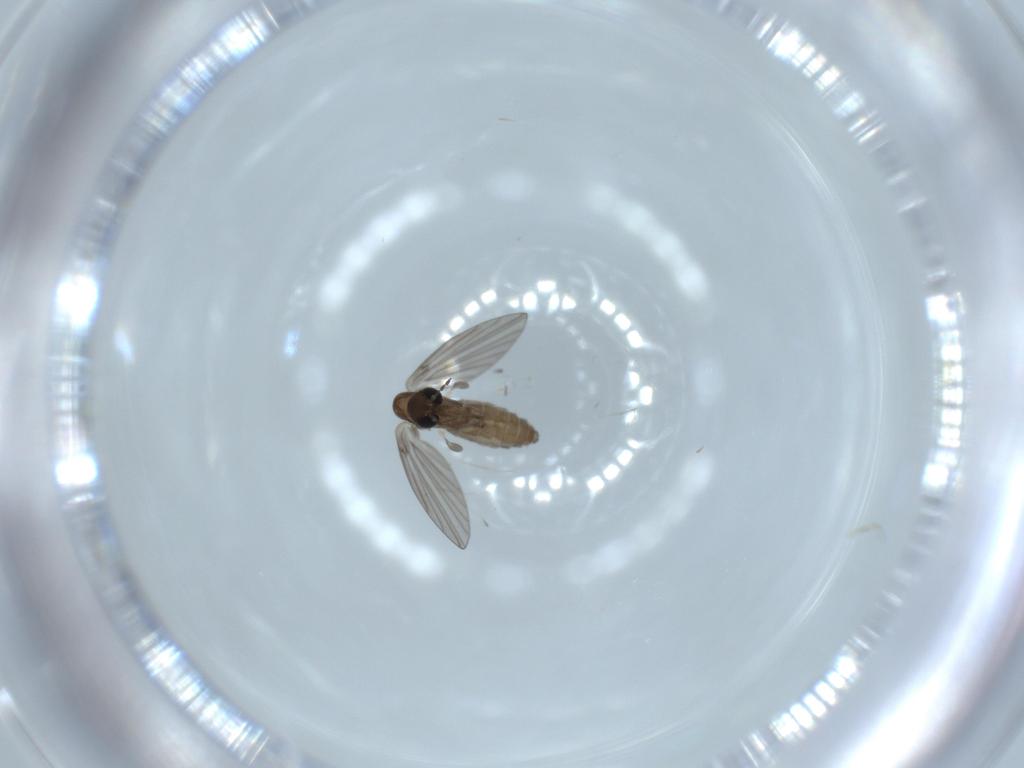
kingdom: Animalia
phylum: Arthropoda
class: Insecta
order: Diptera
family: Psychodidae
